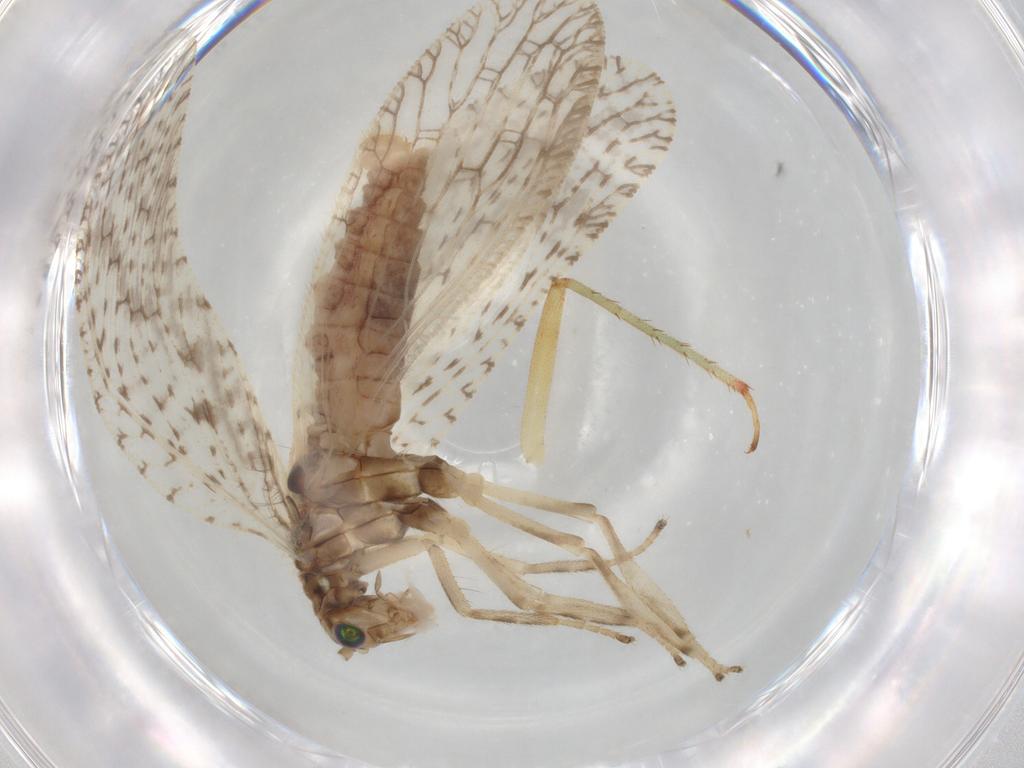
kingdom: Animalia
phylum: Arthropoda
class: Insecta
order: Neuroptera
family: Hemerobiidae
